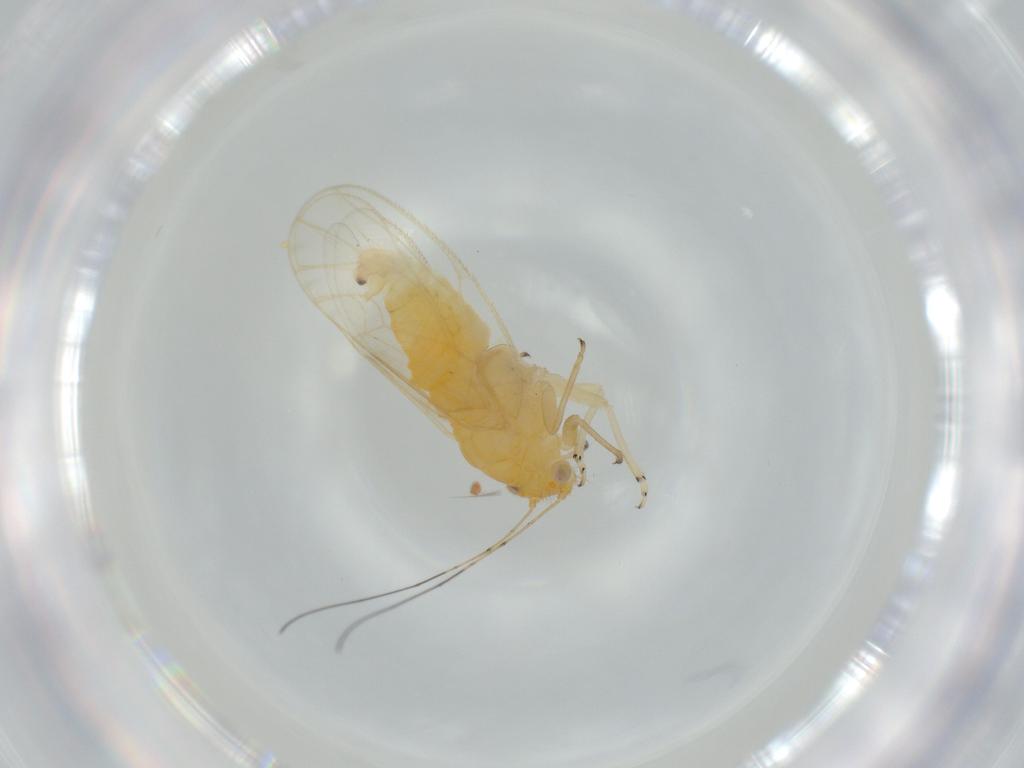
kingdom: Animalia
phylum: Arthropoda
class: Insecta
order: Hemiptera
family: Psyllidae
